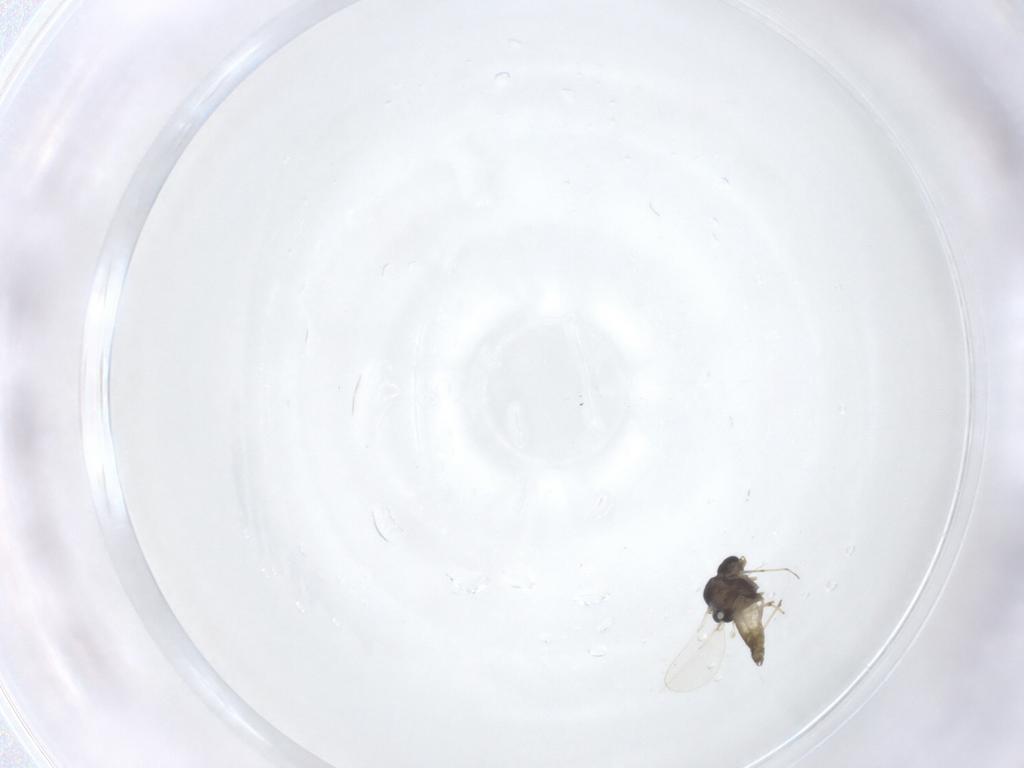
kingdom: Animalia
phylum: Arthropoda
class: Insecta
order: Diptera
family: Chironomidae
